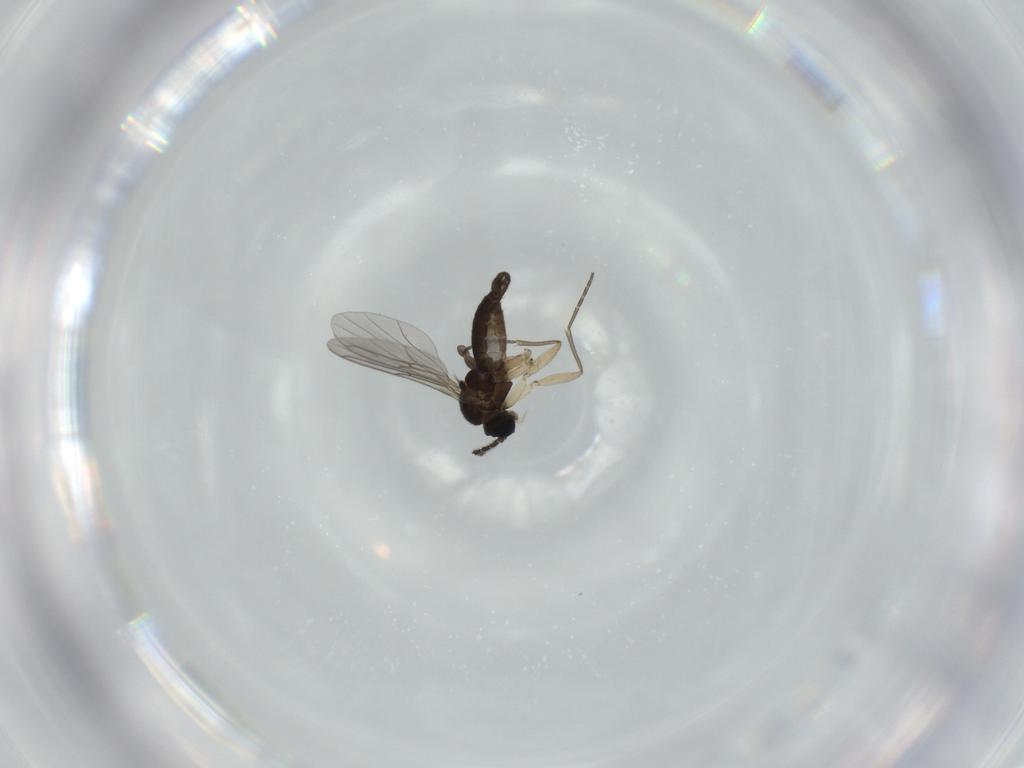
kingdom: Animalia
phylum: Arthropoda
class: Insecta
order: Diptera
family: Sciaridae
